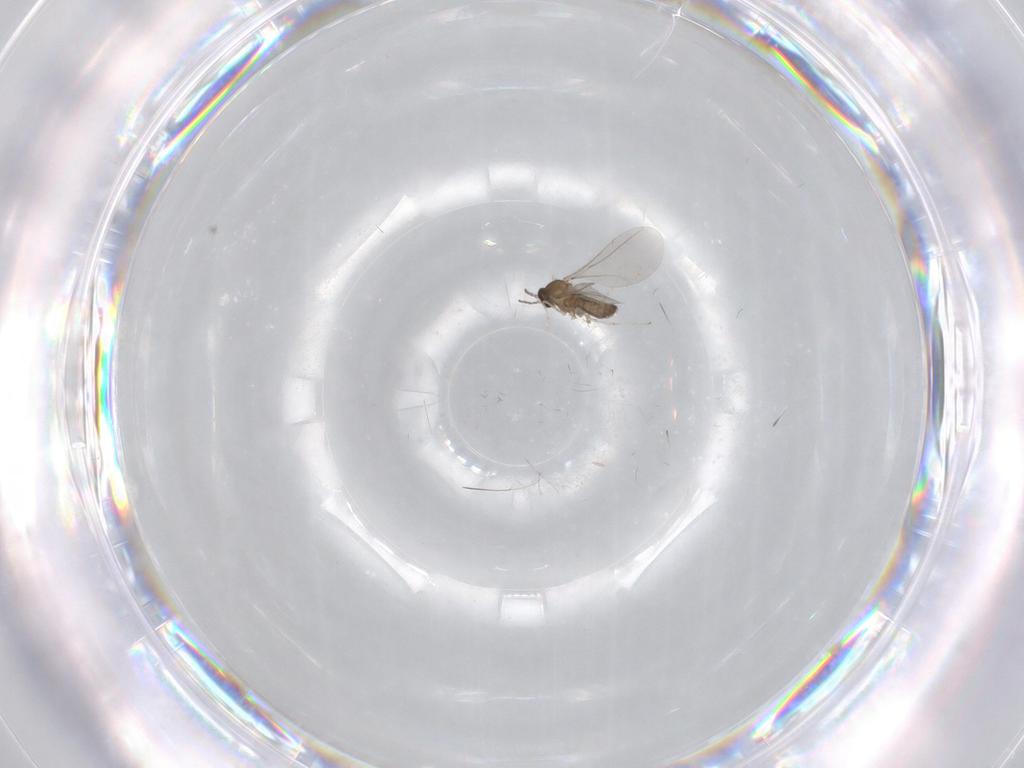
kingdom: Animalia
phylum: Arthropoda
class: Insecta
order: Diptera
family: Cecidomyiidae
